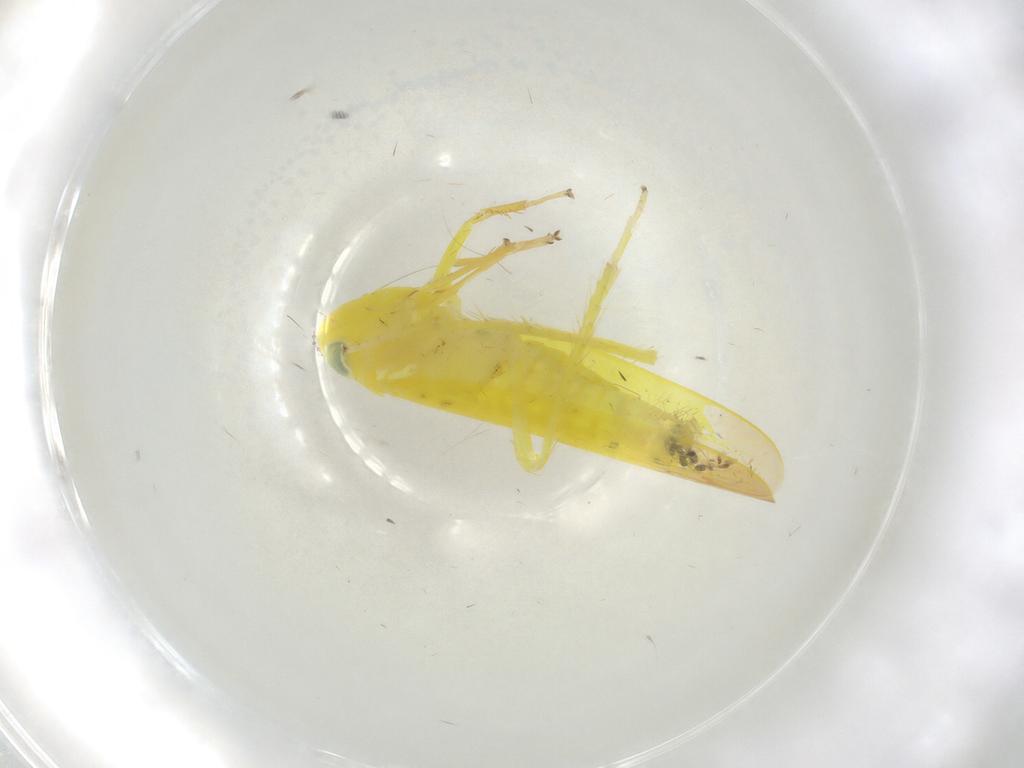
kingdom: Animalia
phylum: Arthropoda
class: Insecta
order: Hemiptera
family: Cicadellidae
